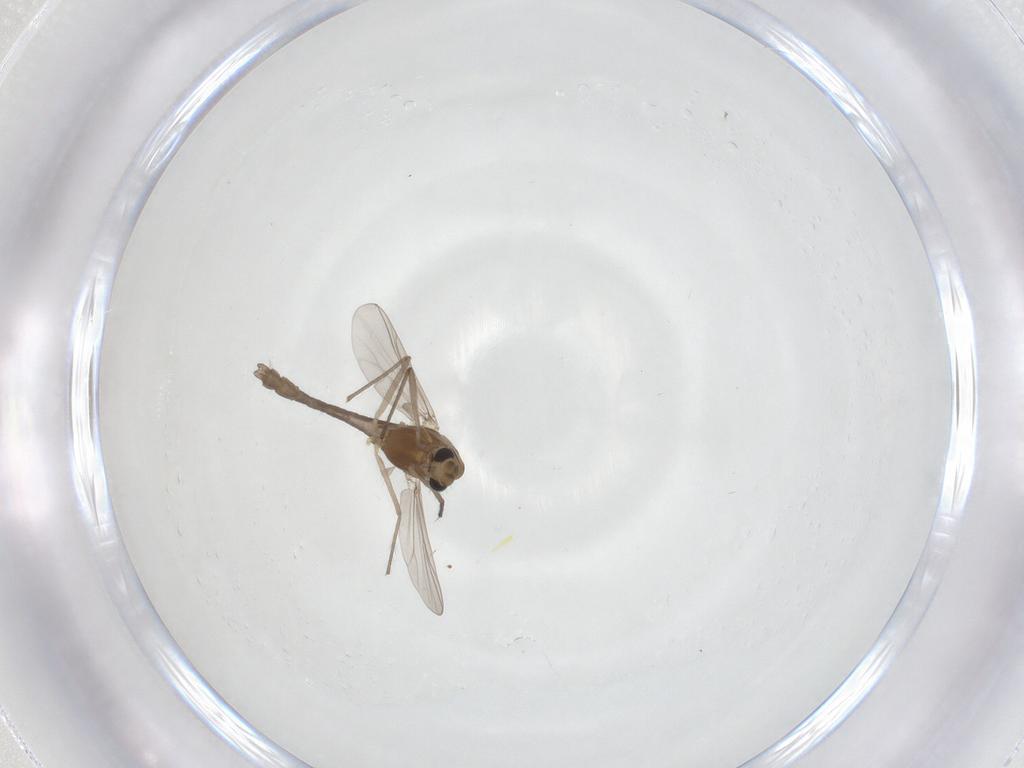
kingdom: Animalia
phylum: Arthropoda
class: Insecta
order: Diptera
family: Chironomidae
